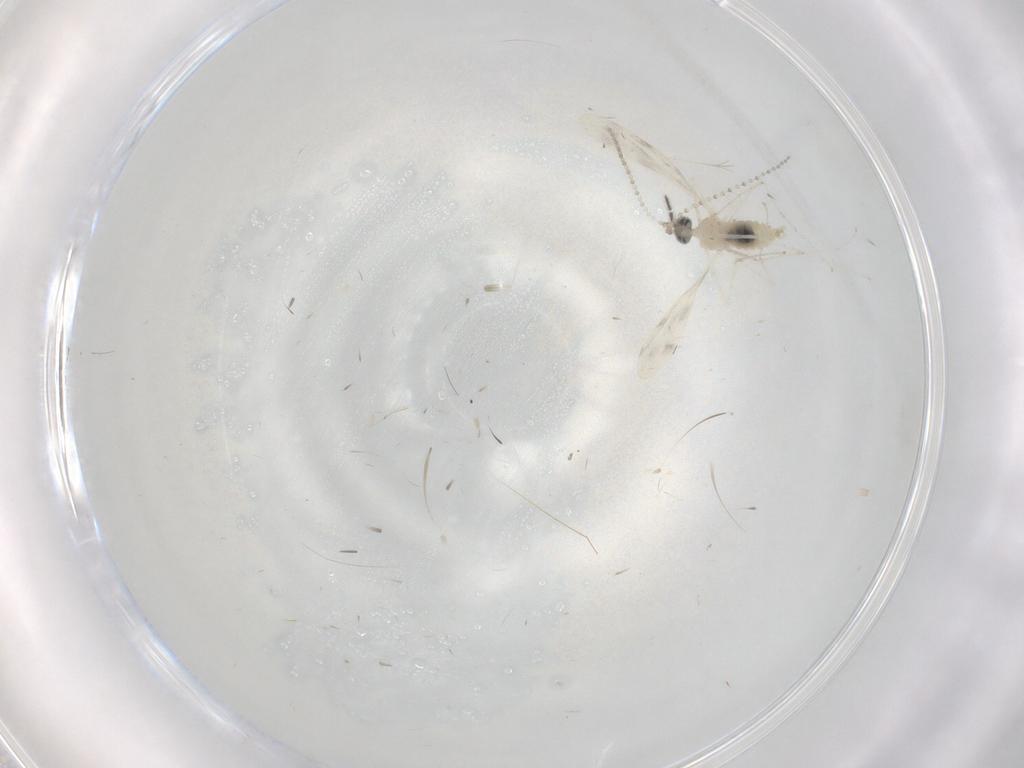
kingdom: Animalia
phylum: Arthropoda
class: Insecta
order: Diptera
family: Cecidomyiidae
